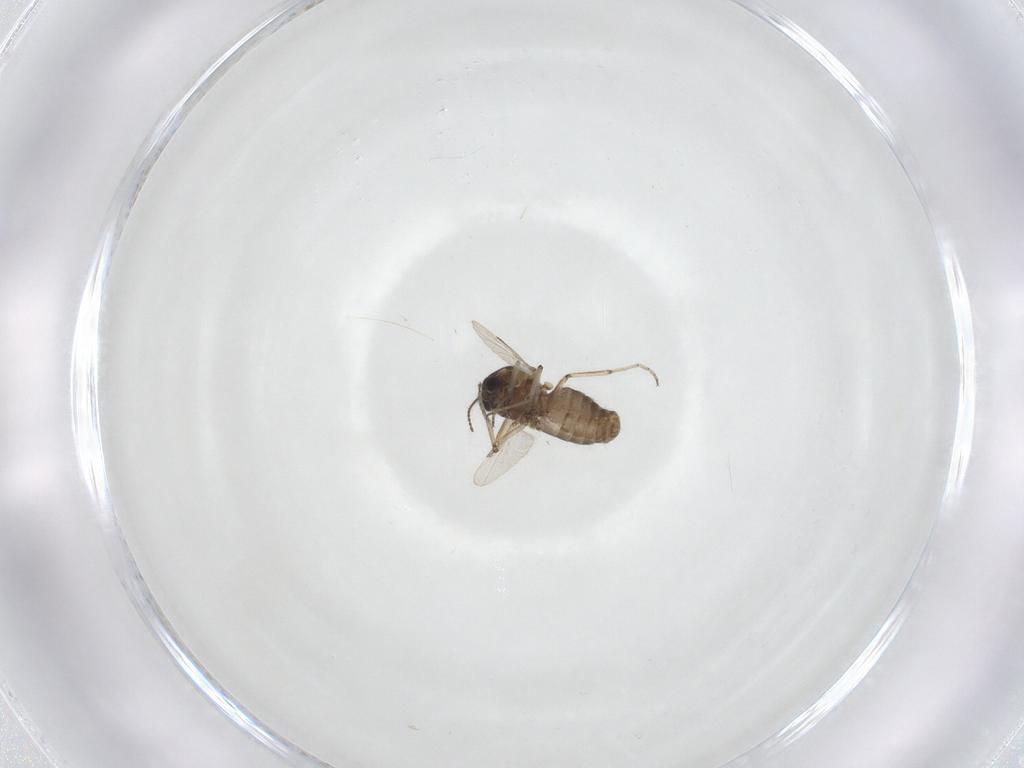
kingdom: Animalia
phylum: Arthropoda
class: Insecta
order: Diptera
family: Ceratopogonidae
